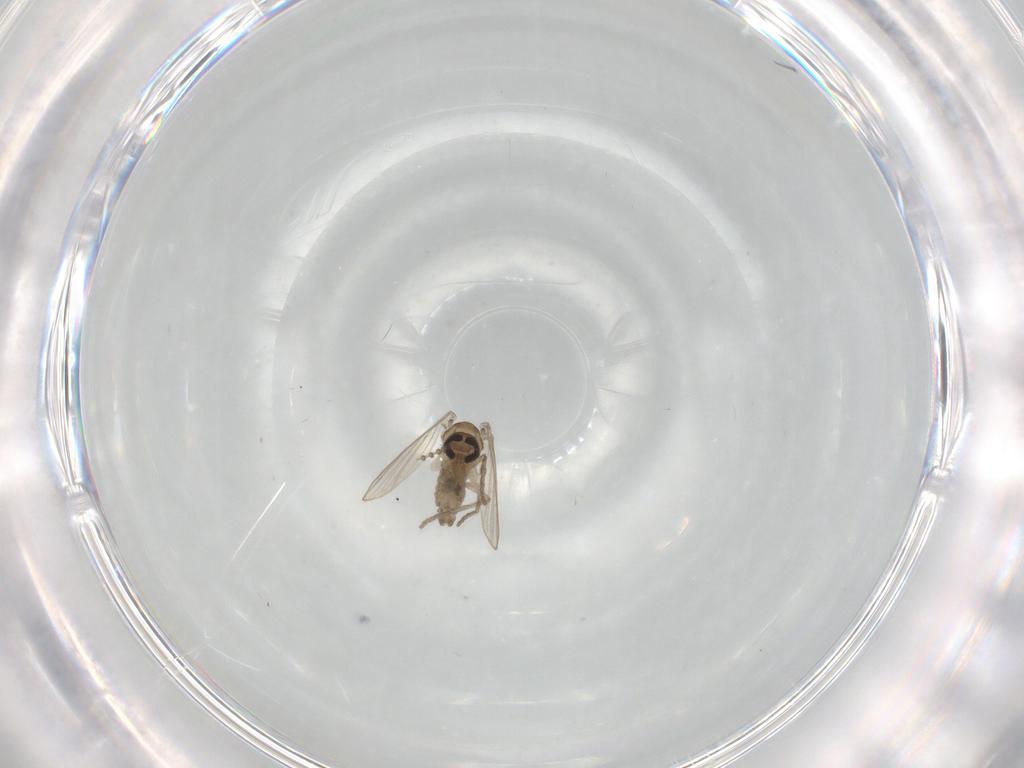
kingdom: Animalia
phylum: Arthropoda
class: Insecta
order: Diptera
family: Psychodidae
